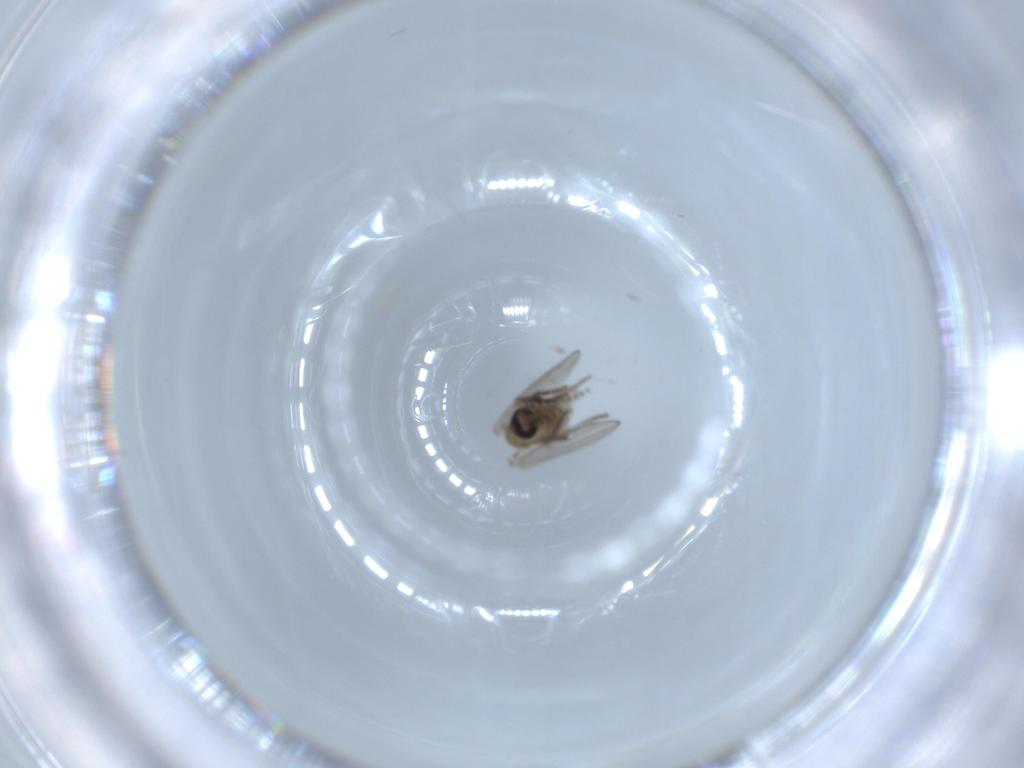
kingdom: Animalia
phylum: Arthropoda
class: Insecta
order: Diptera
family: Psychodidae
